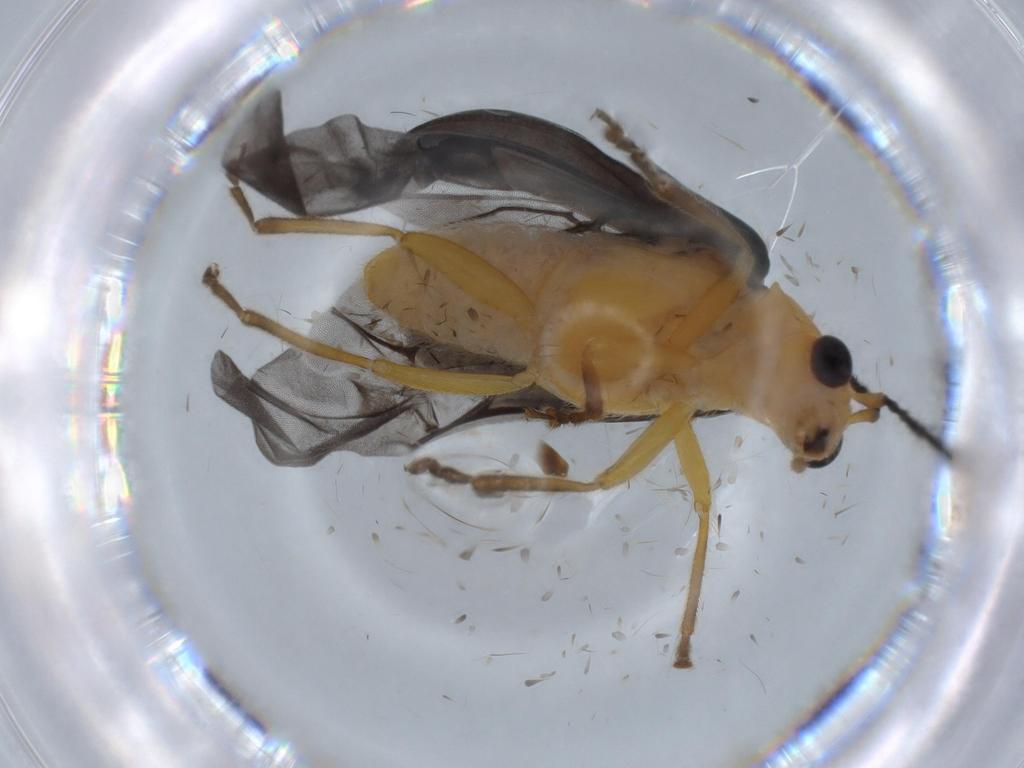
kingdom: Animalia
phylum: Arthropoda
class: Insecta
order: Coleoptera
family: Chrysomelidae
